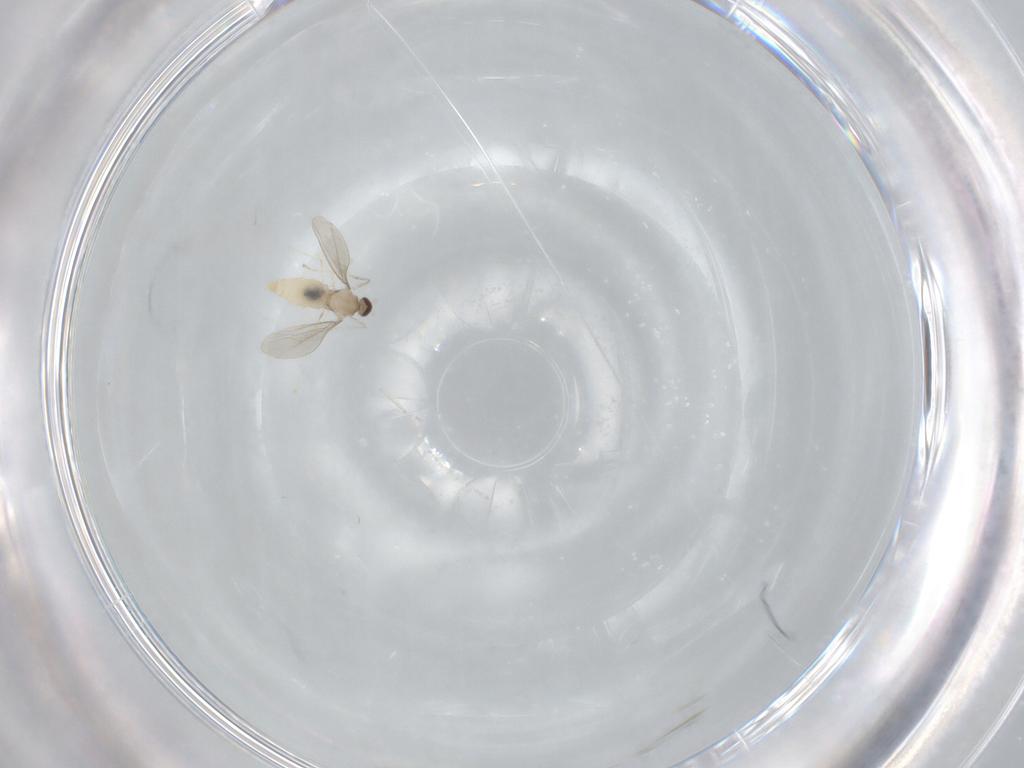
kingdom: Animalia
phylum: Arthropoda
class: Insecta
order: Diptera
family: Cecidomyiidae
